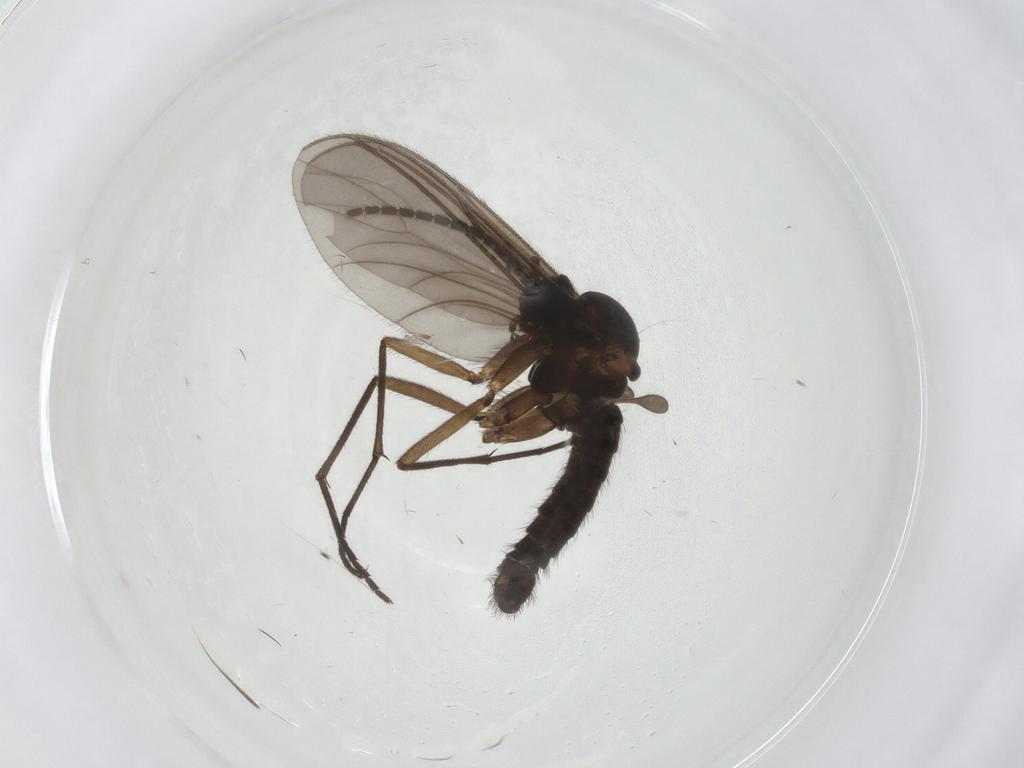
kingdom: Animalia
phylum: Arthropoda
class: Insecta
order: Diptera
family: Sciaridae
